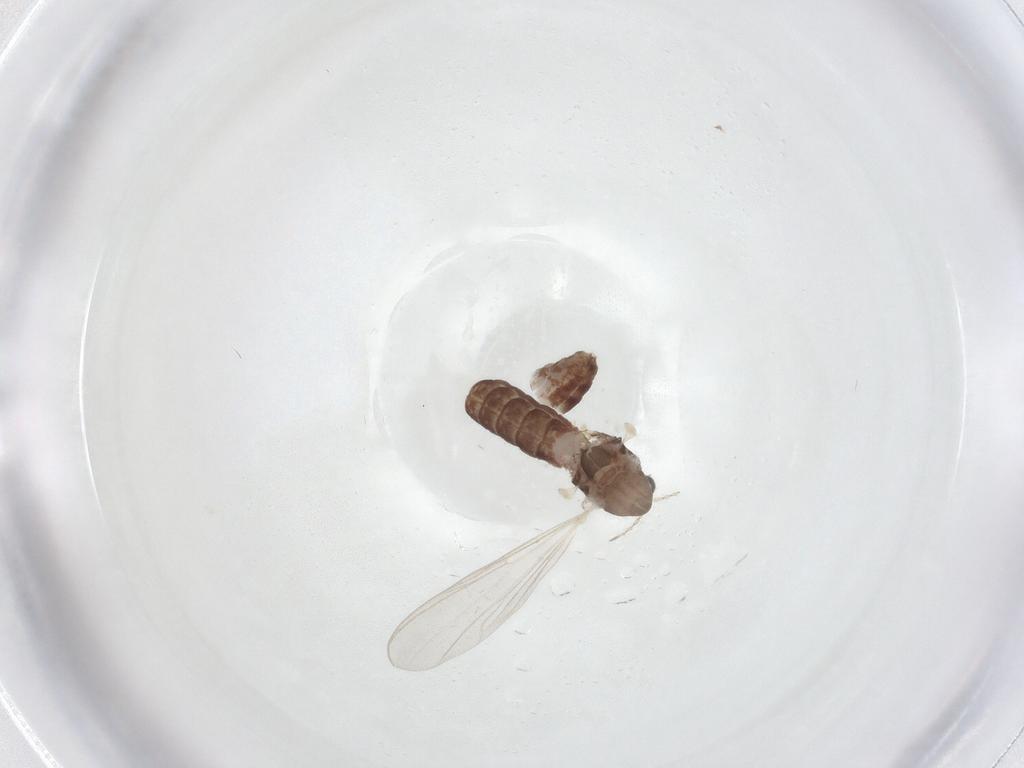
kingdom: Animalia
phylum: Arthropoda
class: Insecta
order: Diptera
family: Chironomidae
